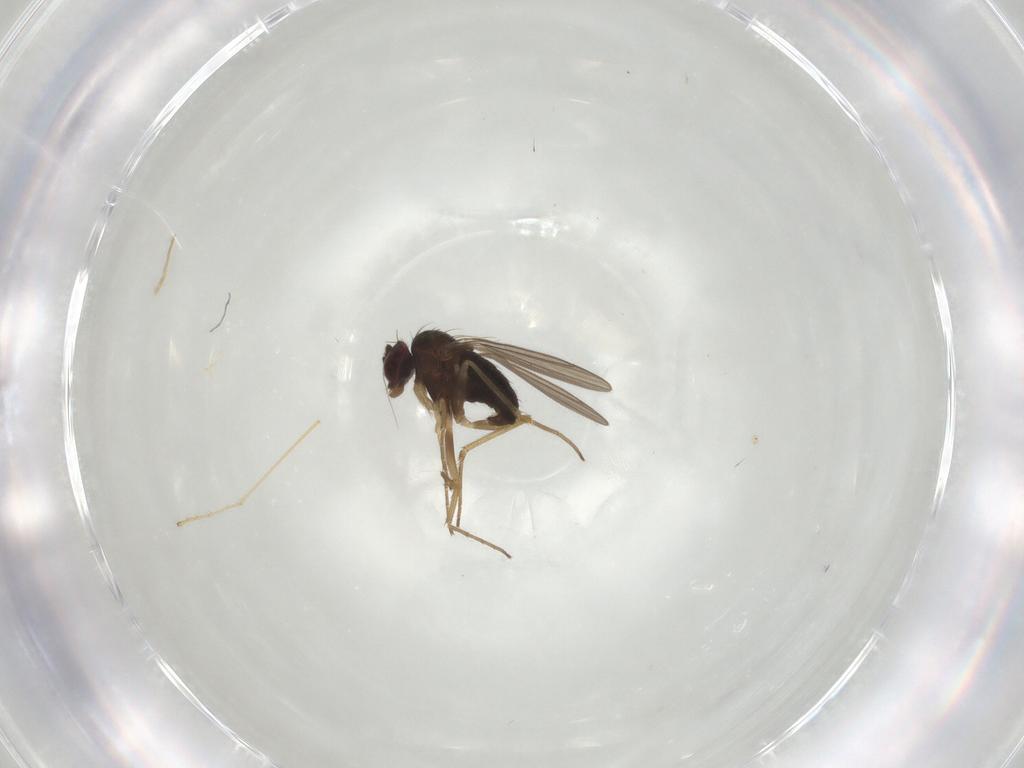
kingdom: Animalia
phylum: Arthropoda
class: Insecta
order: Diptera
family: Dolichopodidae
